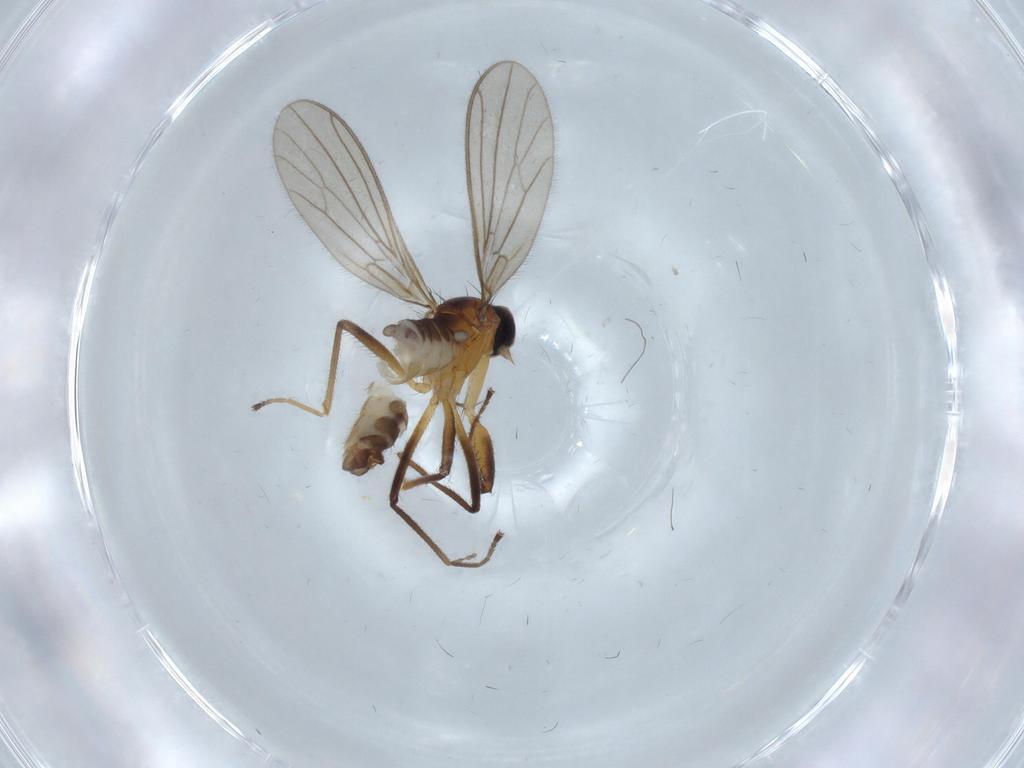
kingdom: Animalia
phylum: Arthropoda
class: Insecta
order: Diptera
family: Empididae
